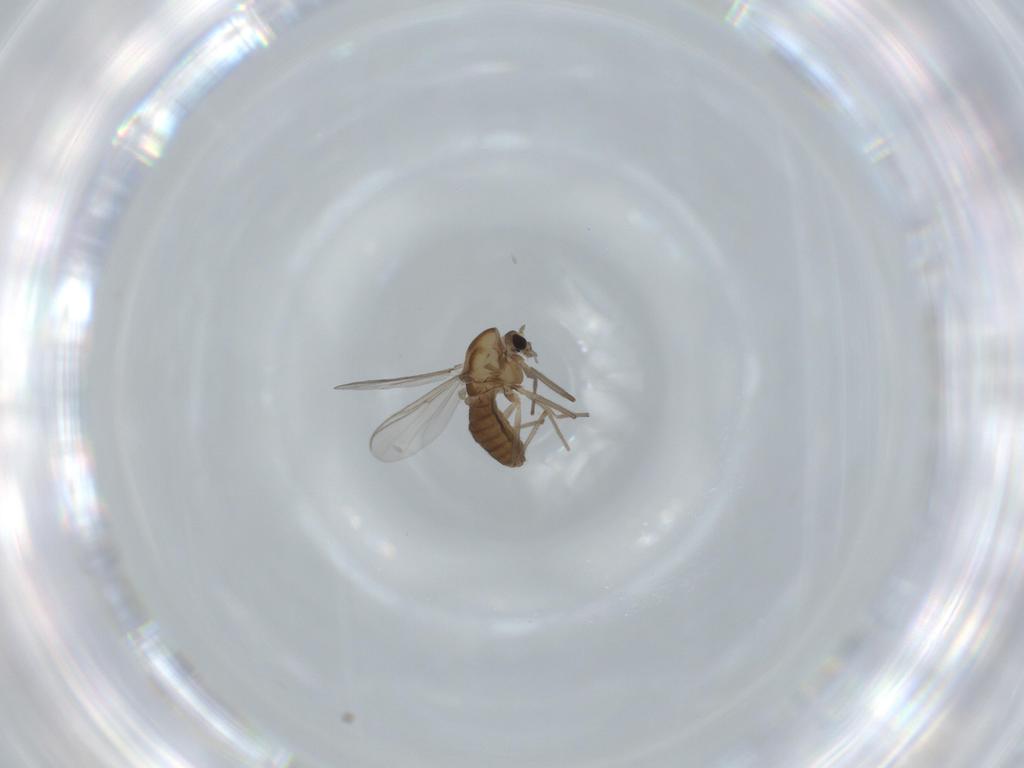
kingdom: Animalia
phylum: Arthropoda
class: Insecta
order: Diptera
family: Chironomidae
